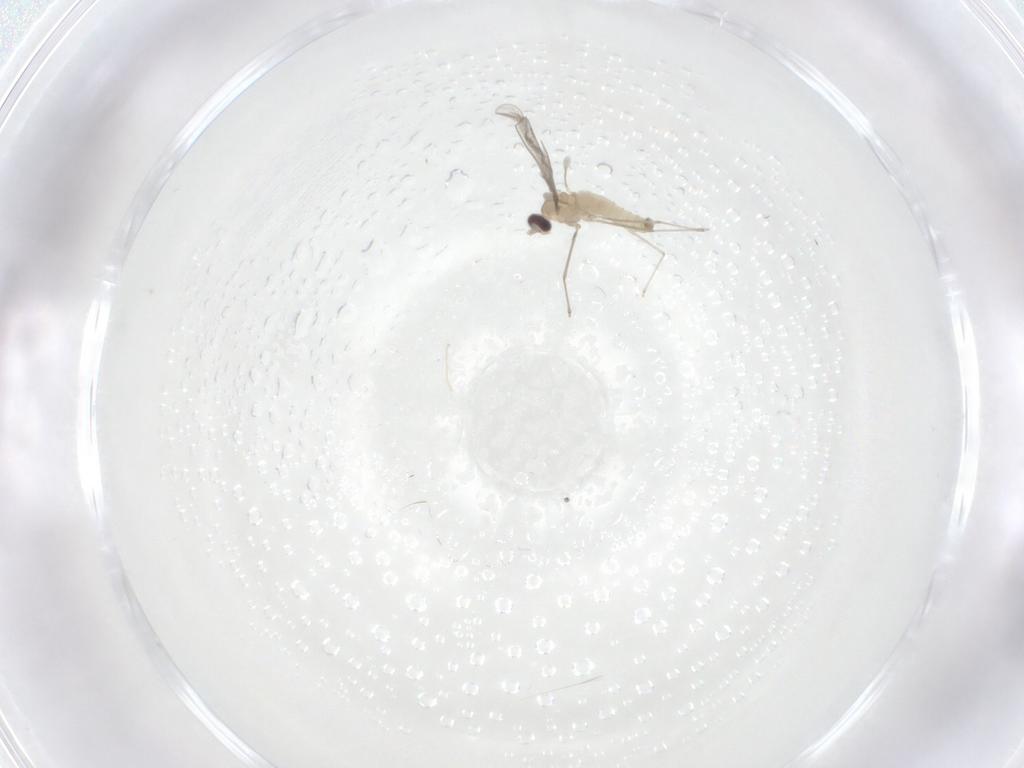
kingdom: Animalia
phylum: Arthropoda
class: Insecta
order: Diptera
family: Cecidomyiidae
